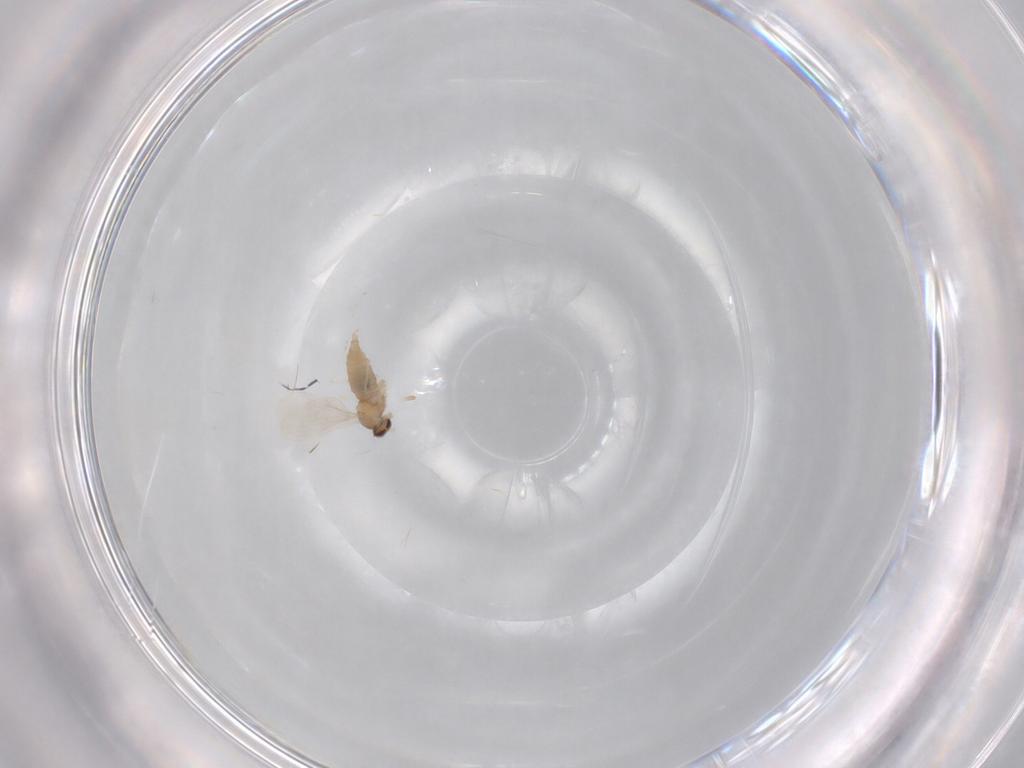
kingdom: Animalia
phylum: Arthropoda
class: Insecta
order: Diptera
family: Cecidomyiidae
